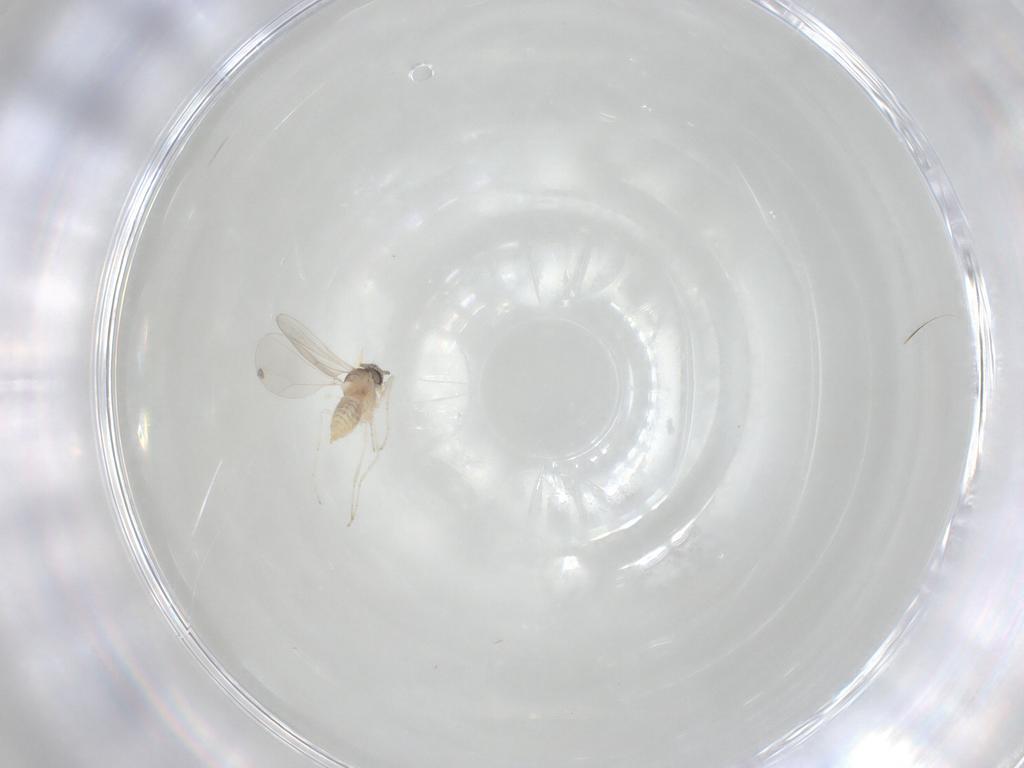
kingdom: Animalia
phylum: Arthropoda
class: Insecta
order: Diptera
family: Cecidomyiidae
